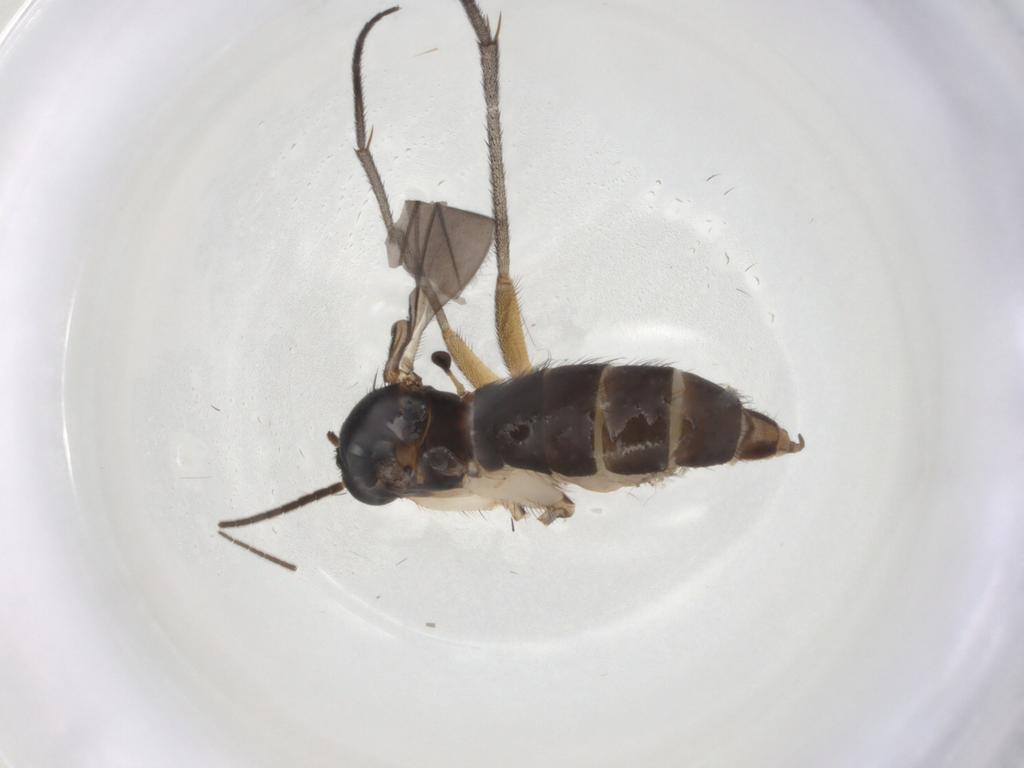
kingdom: Animalia
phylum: Arthropoda
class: Insecta
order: Diptera
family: Sciaridae
